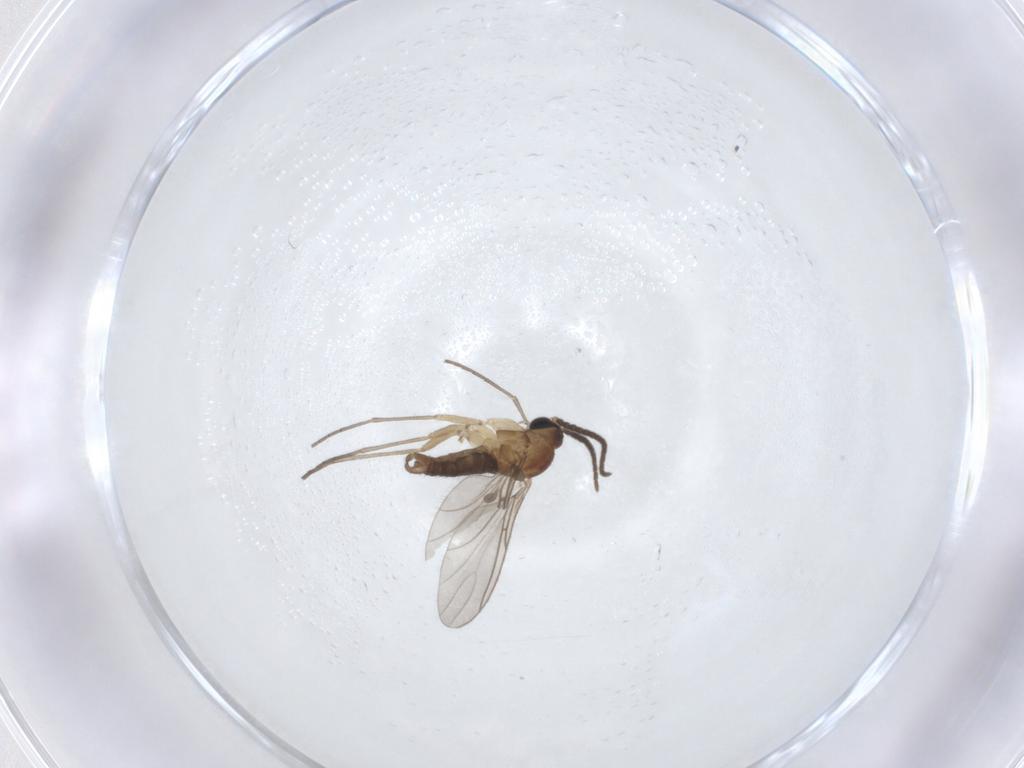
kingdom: Animalia
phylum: Arthropoda
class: Insecta
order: Diptera
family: Sciaridae
